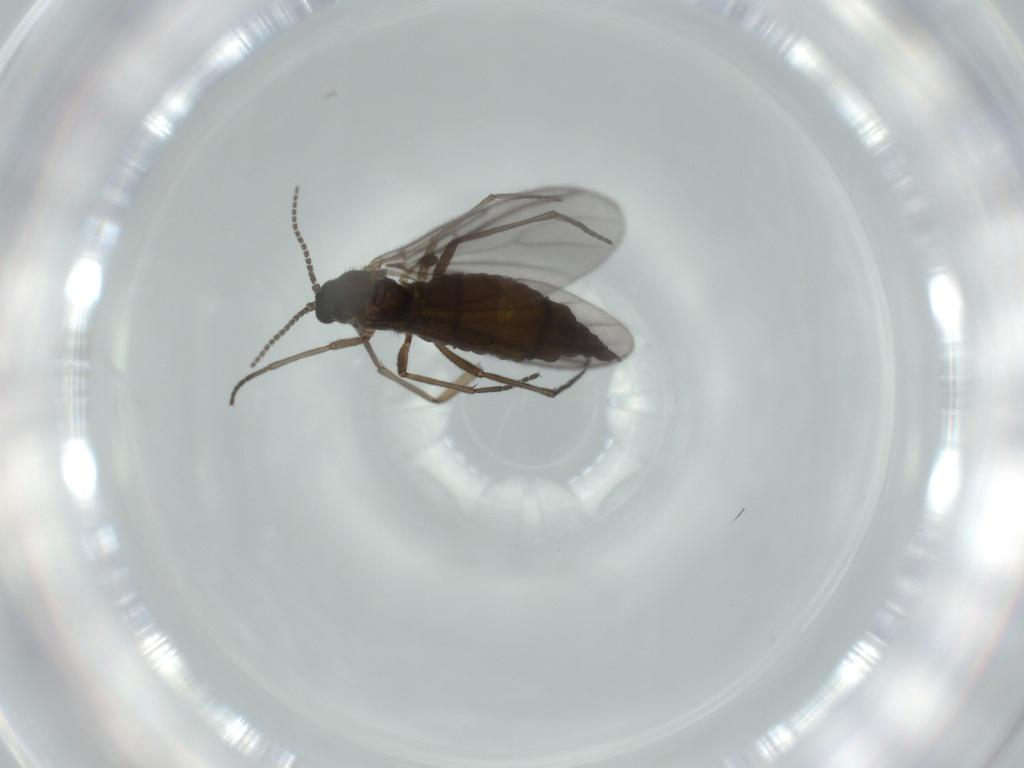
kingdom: Animalia
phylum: Arthropoda
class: Insecta
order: Diptera
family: Sciaridae
